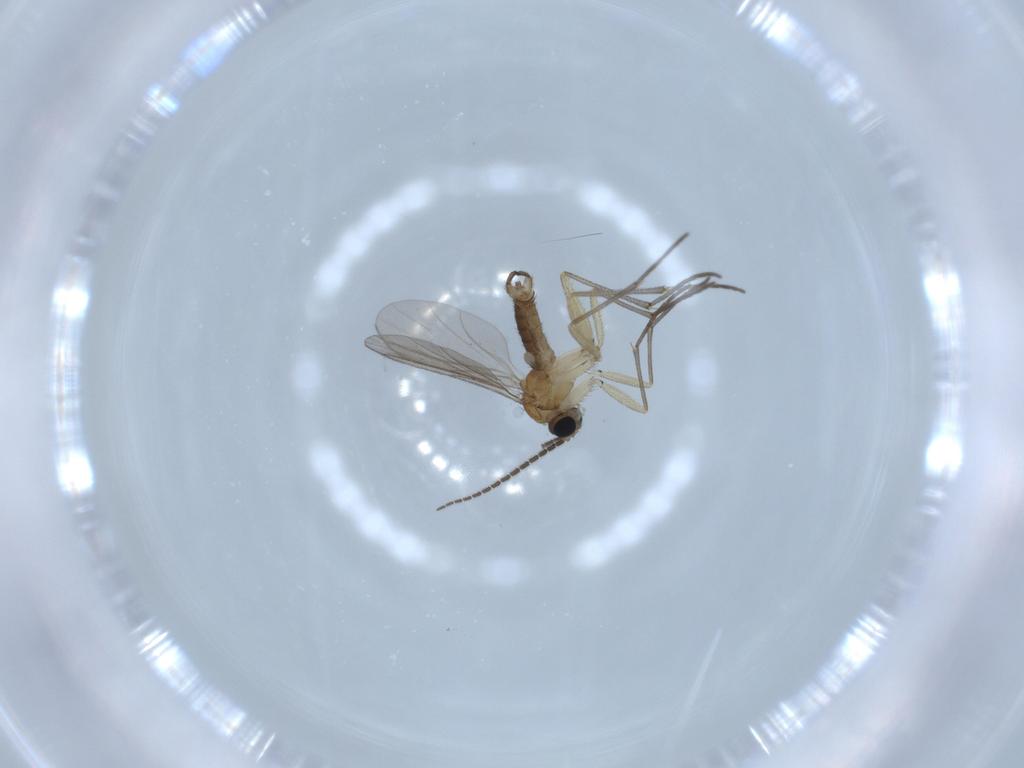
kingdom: Animalia
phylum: Arthropoda
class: Insecta
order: Diptera
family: Sciaridae
